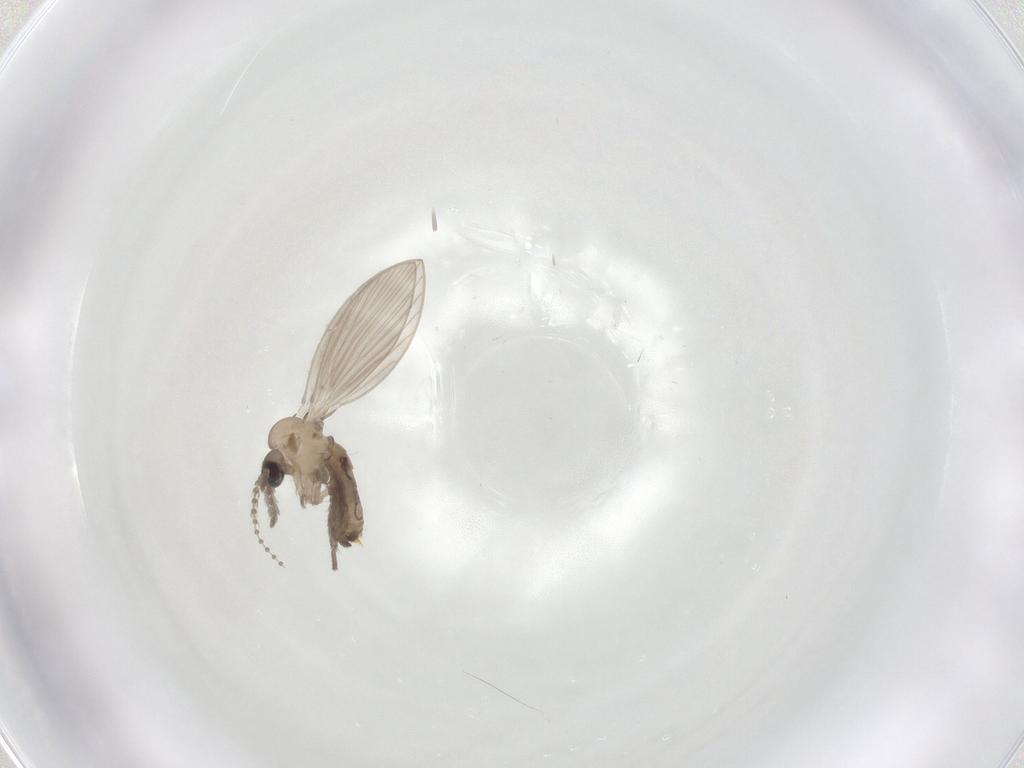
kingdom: Animalia
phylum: Arthropoda
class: Insecta
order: Diptera
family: Psychodidae
